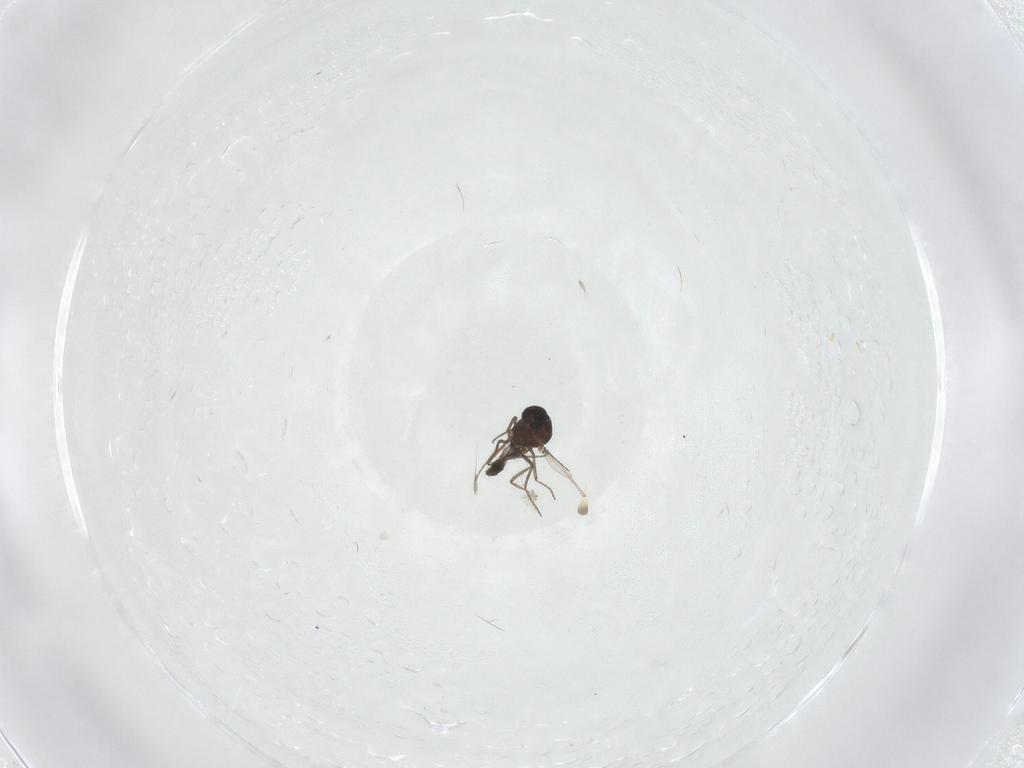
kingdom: Animalia
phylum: Arthropoda
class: Insecta
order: Diptera
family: Ceratopogonidae
